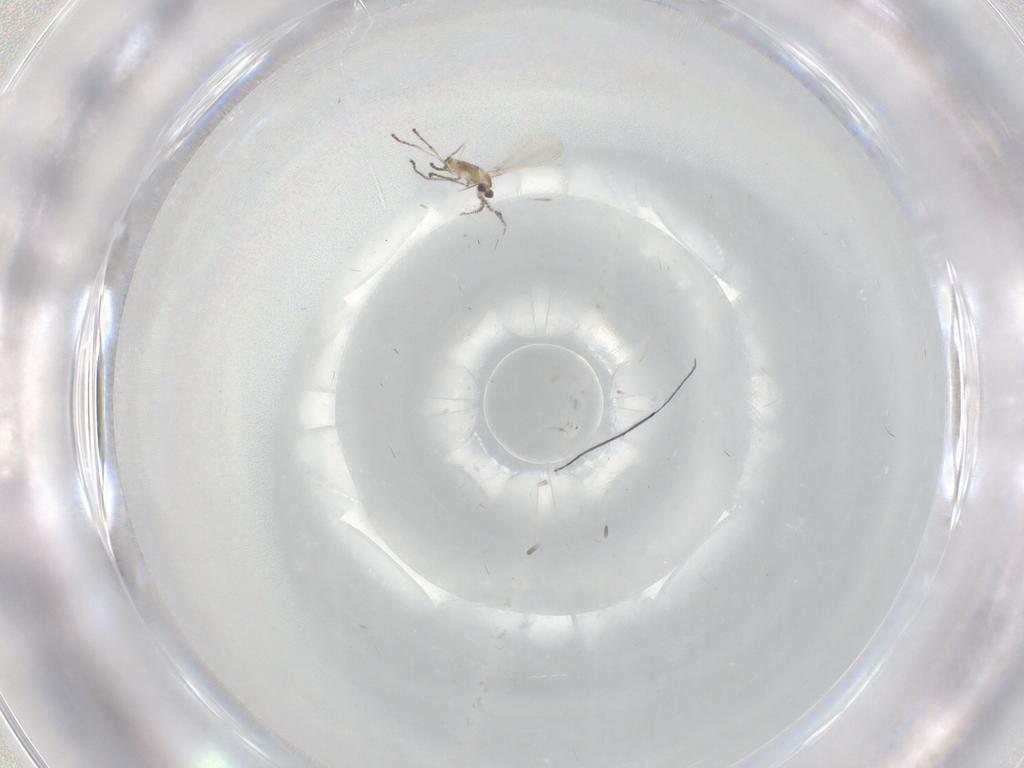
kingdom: Animalia
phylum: Arthropoda
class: Insecta
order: Diptera
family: Cecidomyiidae
